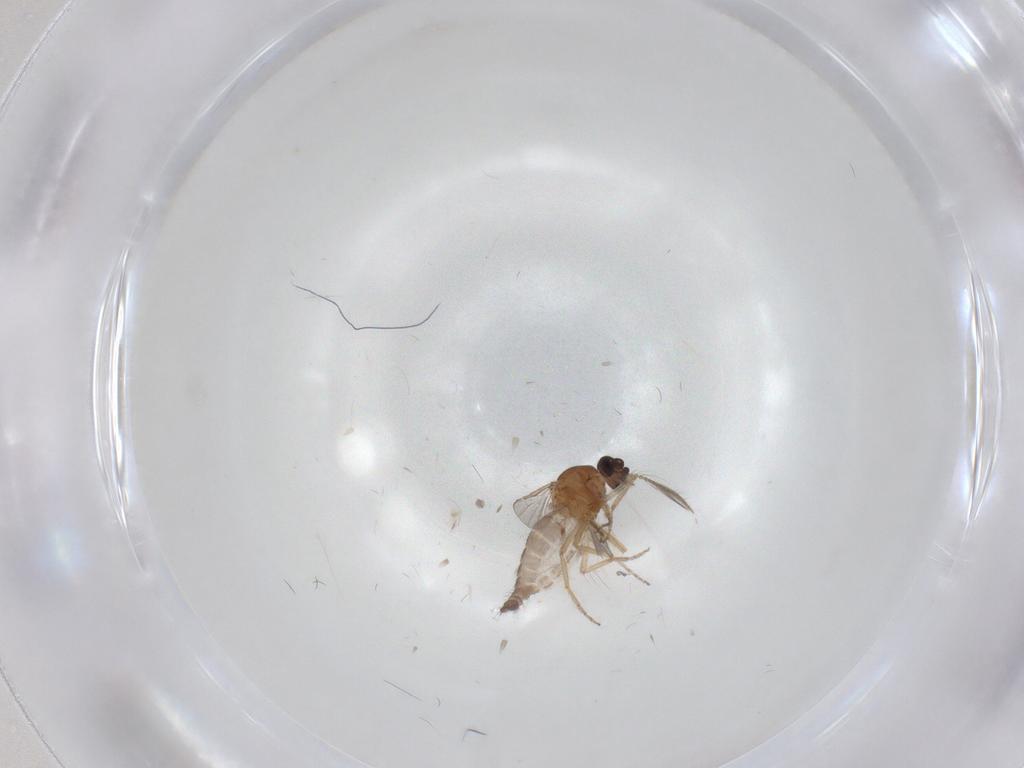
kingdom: Animalia
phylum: Arthropoda
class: Insecta
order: Diptera
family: Ceratopogonidae
